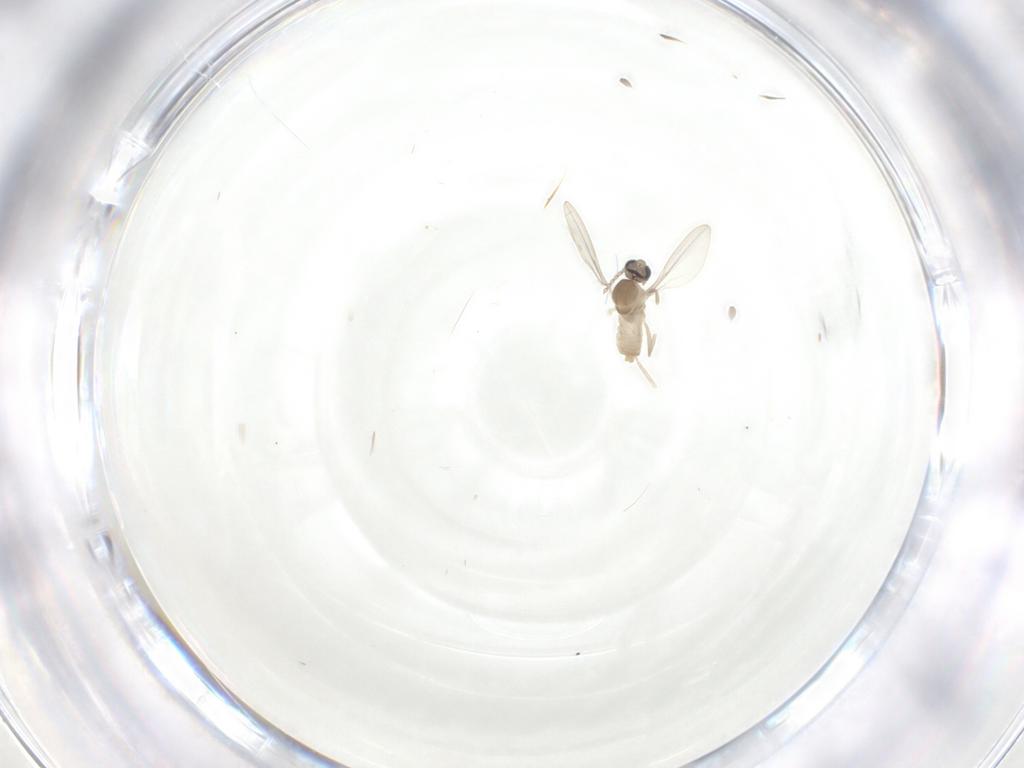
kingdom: Animalia
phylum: Arthropoda
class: Insecta
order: Diptera
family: Cecidomyiidae
